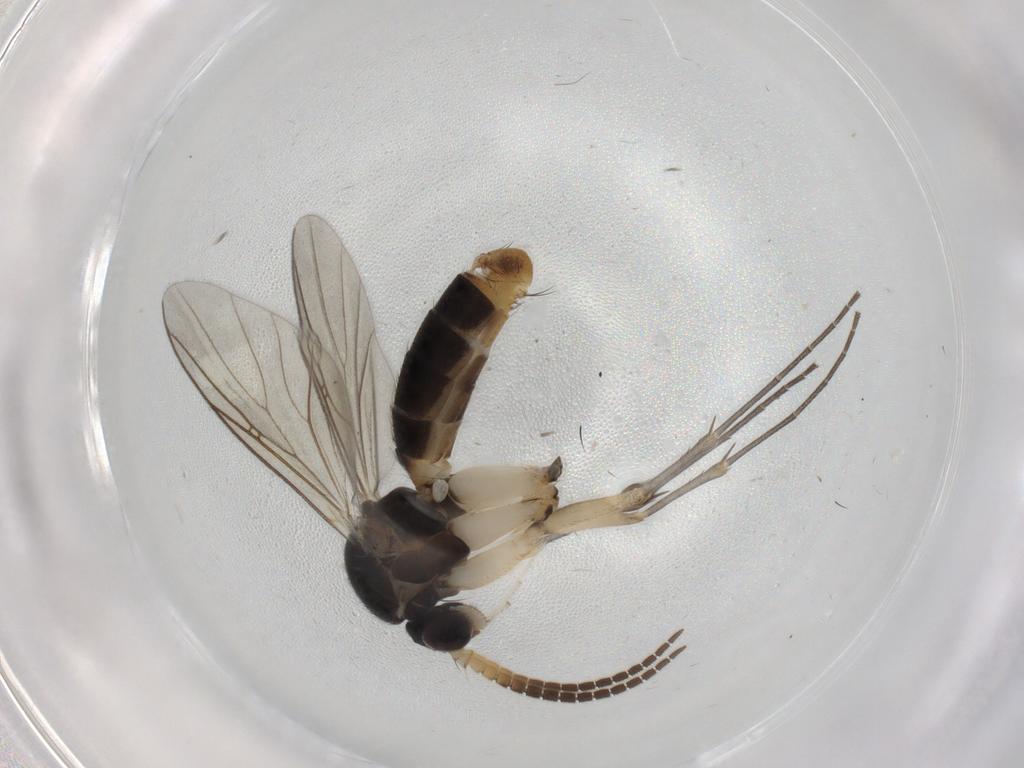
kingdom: Animalia
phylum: Arthropoda
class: Insecta
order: Diptera
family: Phoridae
